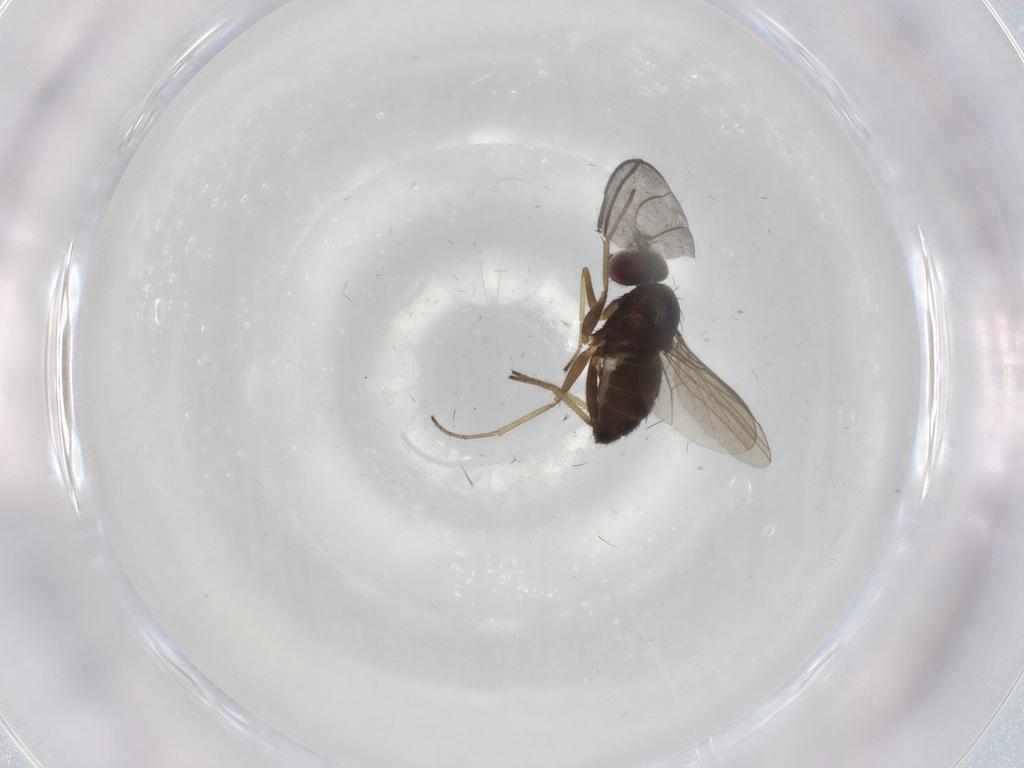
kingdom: Animalia
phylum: Arthropoda
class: Insecta
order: Diptera
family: Dolichopodidae
